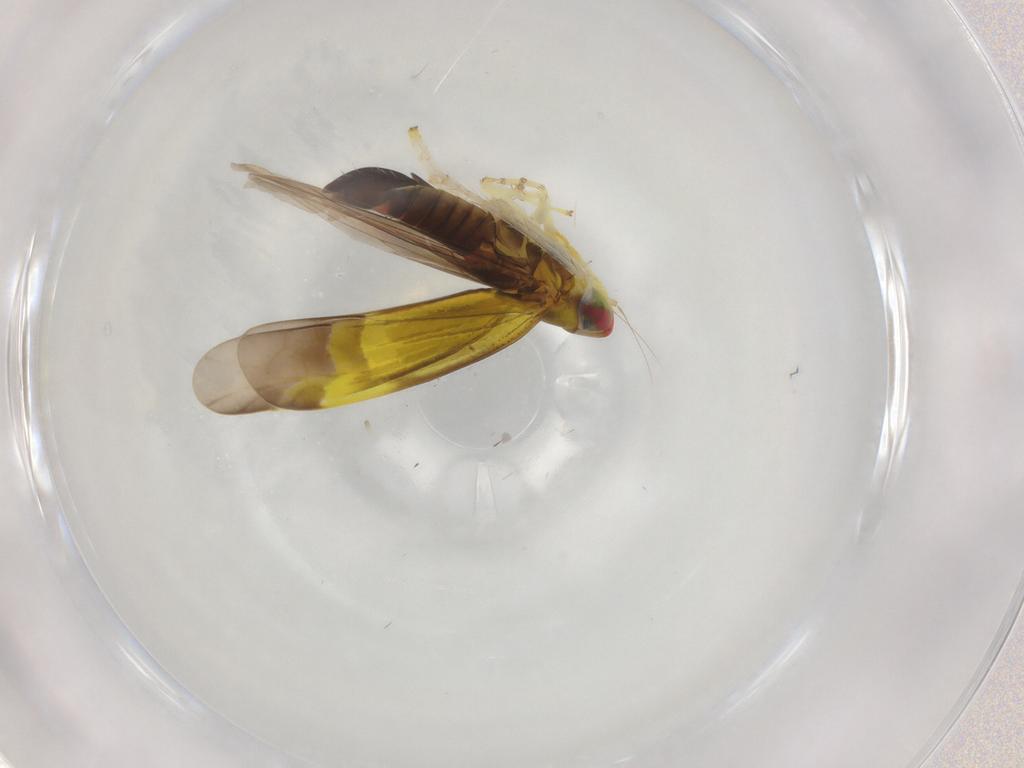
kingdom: Animalia
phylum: Arthropoda
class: Insecta
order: Hemiptera
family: Cicadellidae
